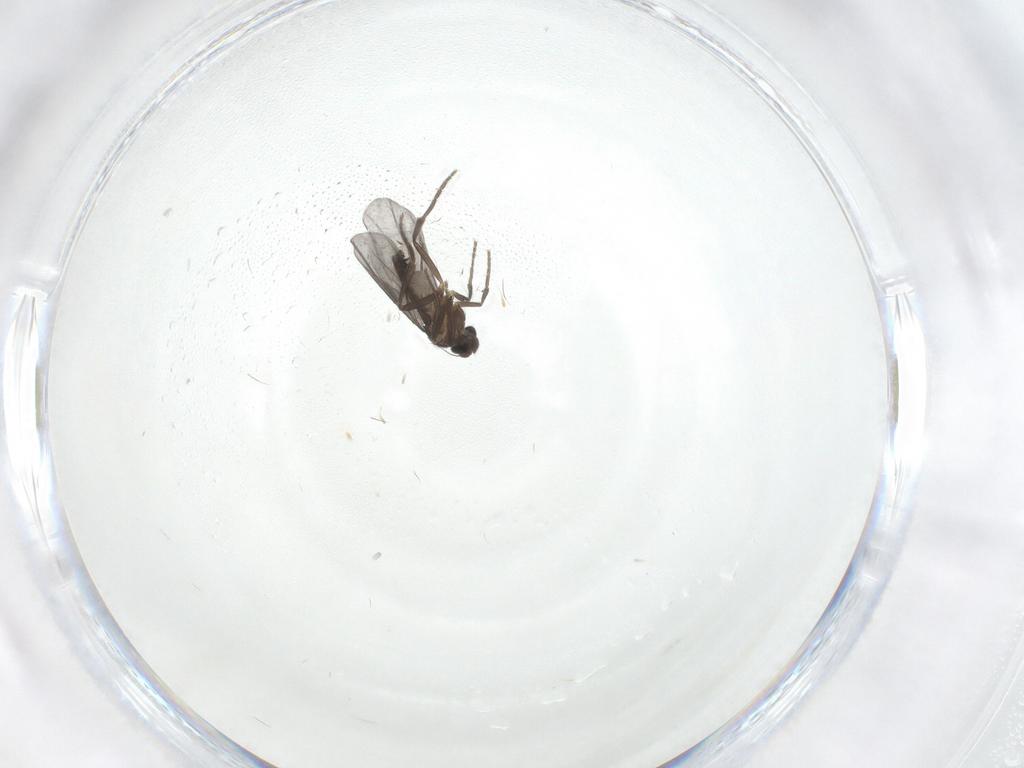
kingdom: Animalia
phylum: Arthropoda
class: Insecta
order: Diptera
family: Phoridae
